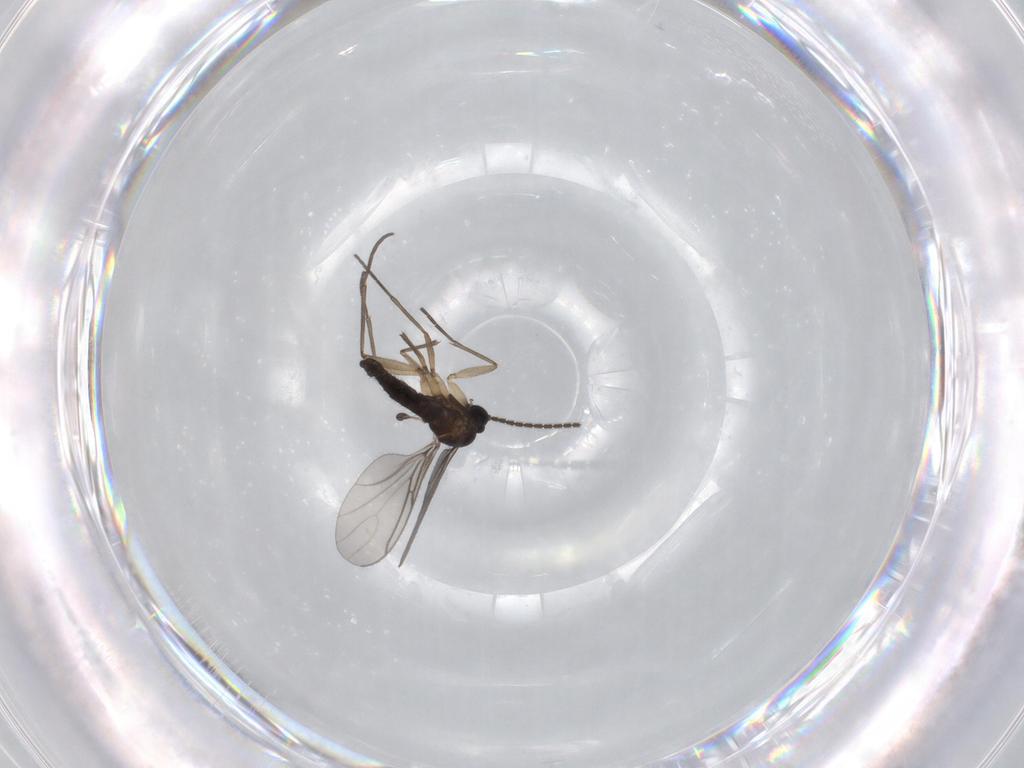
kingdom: Animalia
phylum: Arthropoda
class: Insecta
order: Diptera
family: Sciaridae
